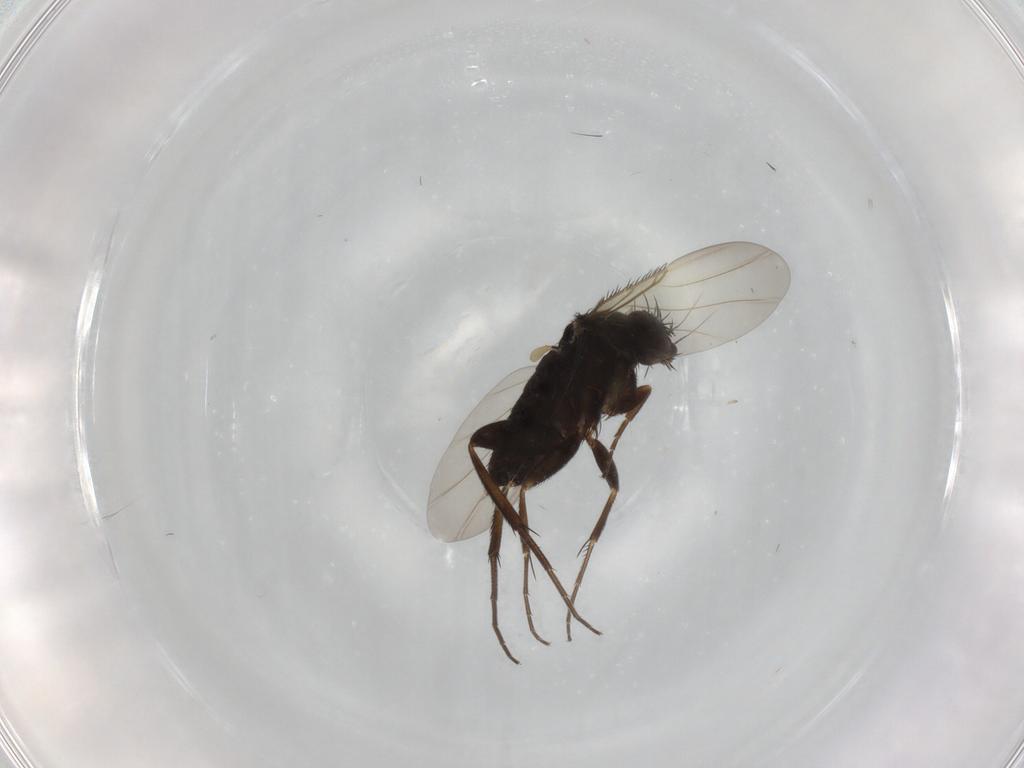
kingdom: Animalia
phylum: Arthropoda
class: Insecta
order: Diptera
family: Phoridae
